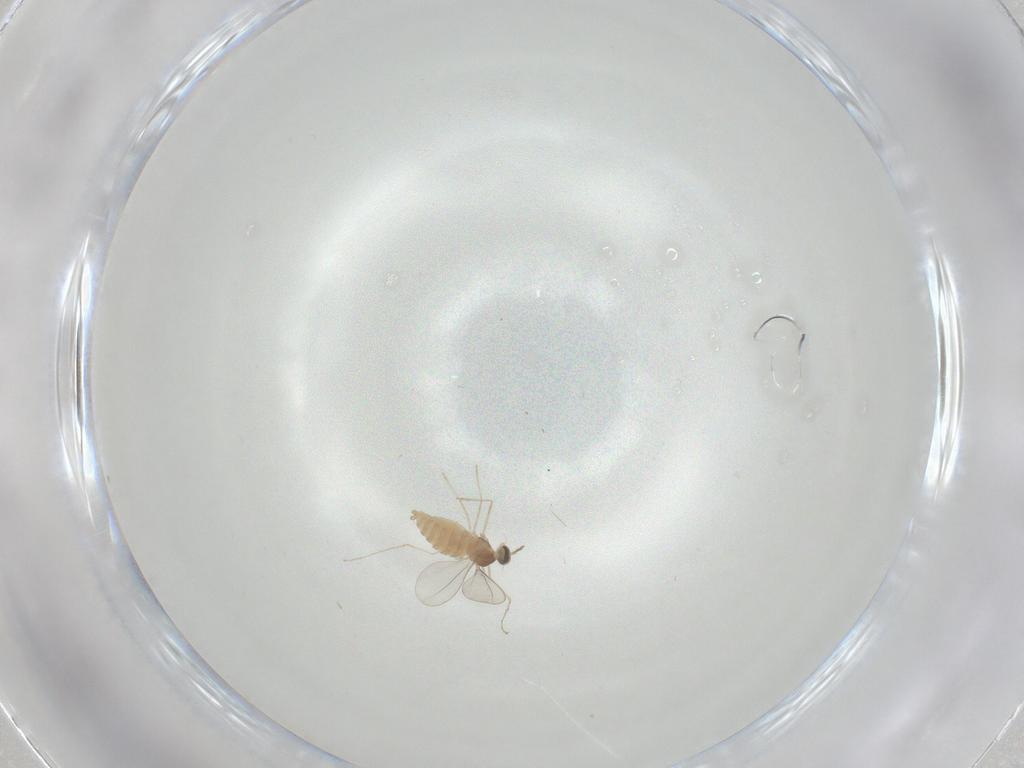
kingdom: Animalia
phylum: Arthropoda
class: Insecta
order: Diptera
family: Cecidomyiidae
